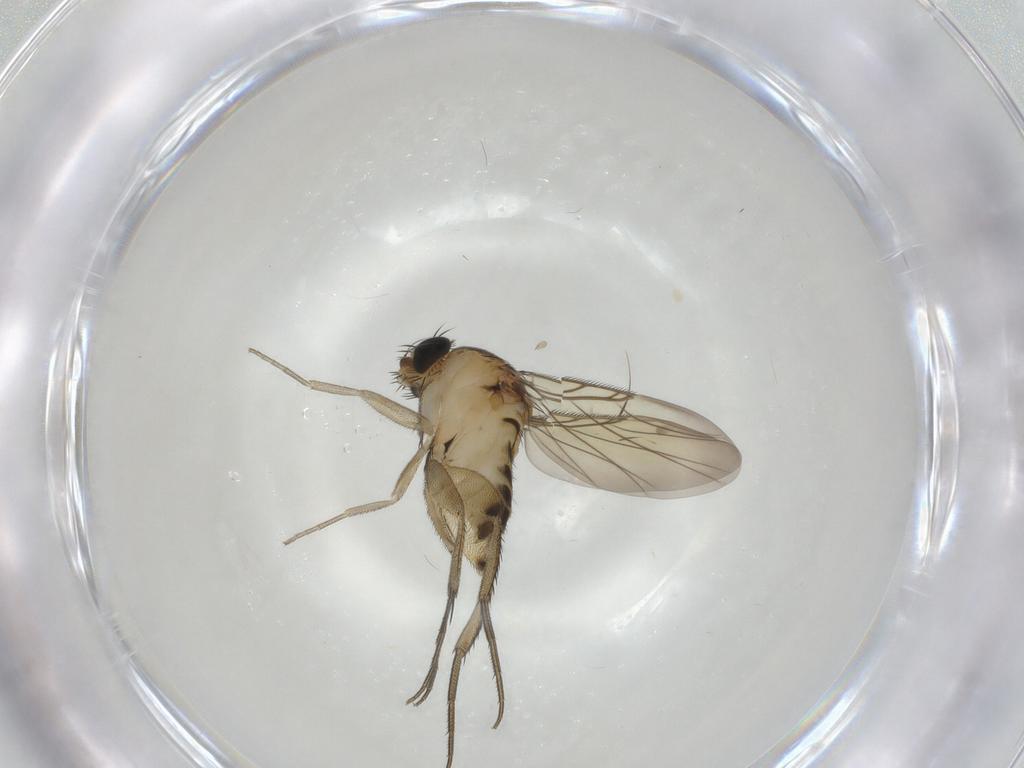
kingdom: Animalia
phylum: Arthropoda
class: Insecta
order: Diptera
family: Phoridae
